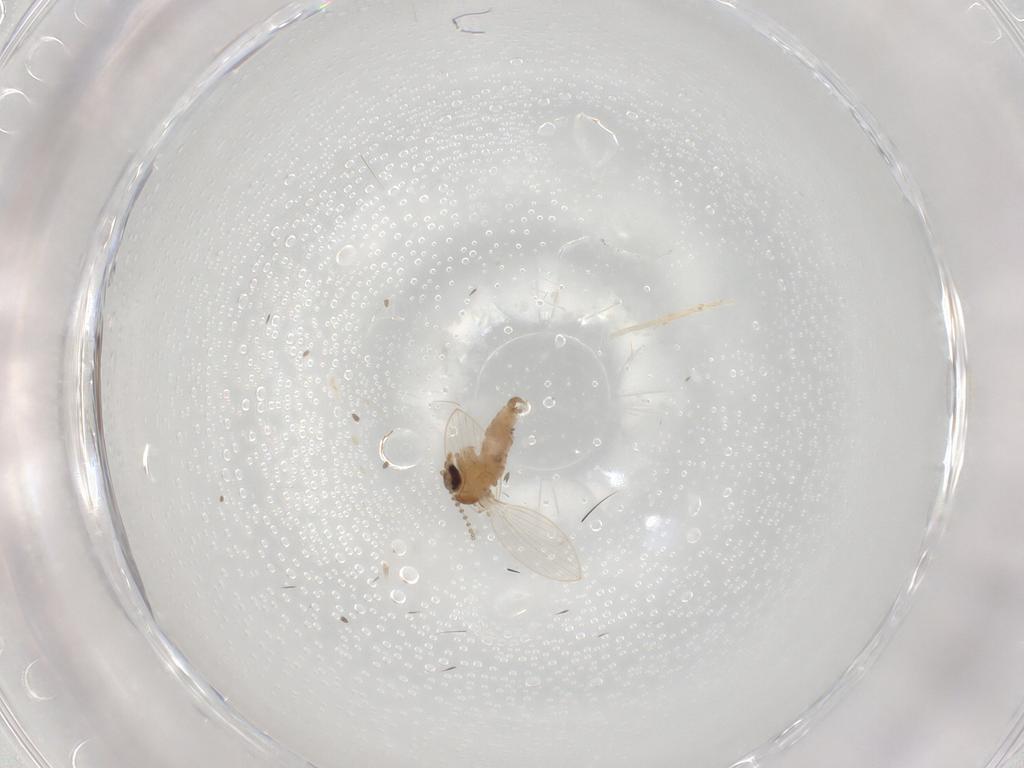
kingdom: Animalia
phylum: Arthropoda
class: Insecta
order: Diptera
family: Psychodidae
